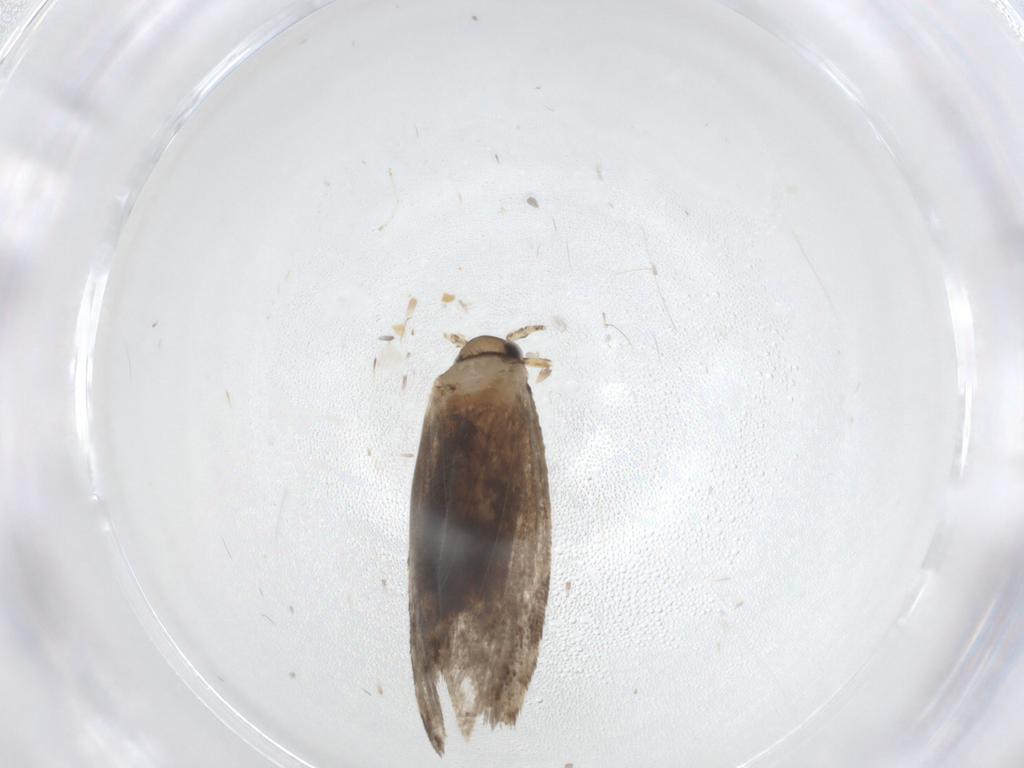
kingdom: Animalia
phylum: Arthropoda
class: Insecta
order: Lepidoptera
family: Tineidae
